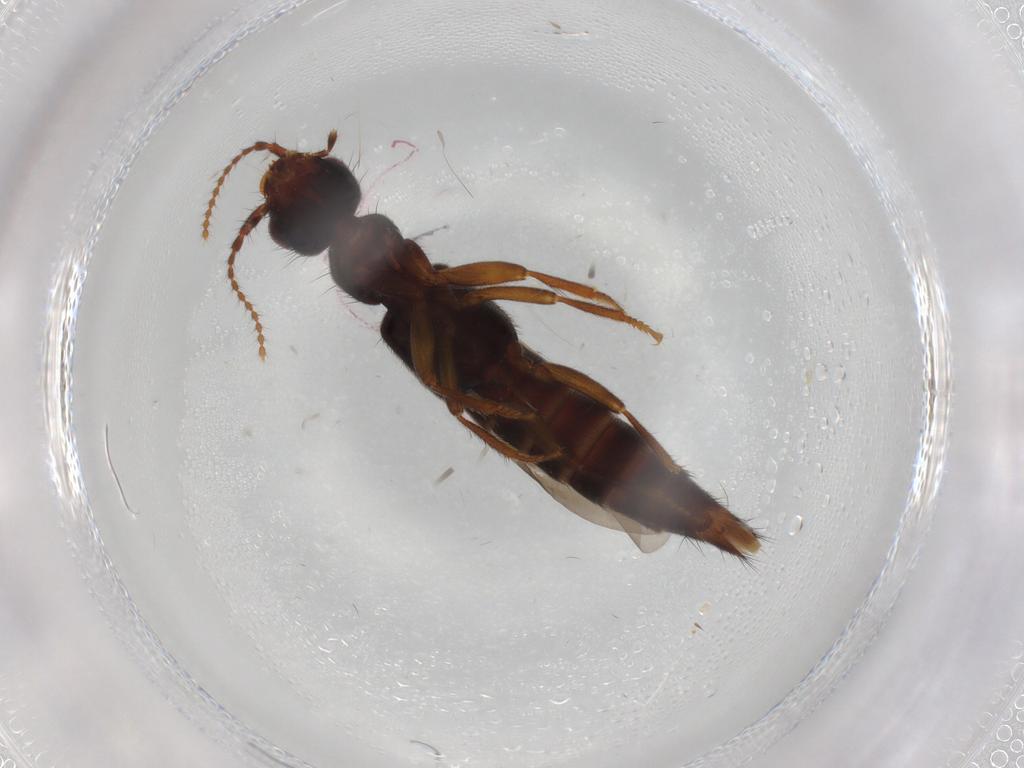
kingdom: Animalia
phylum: Arthropoda
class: Insecta
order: Coleoptera
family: Chrysomelidae
